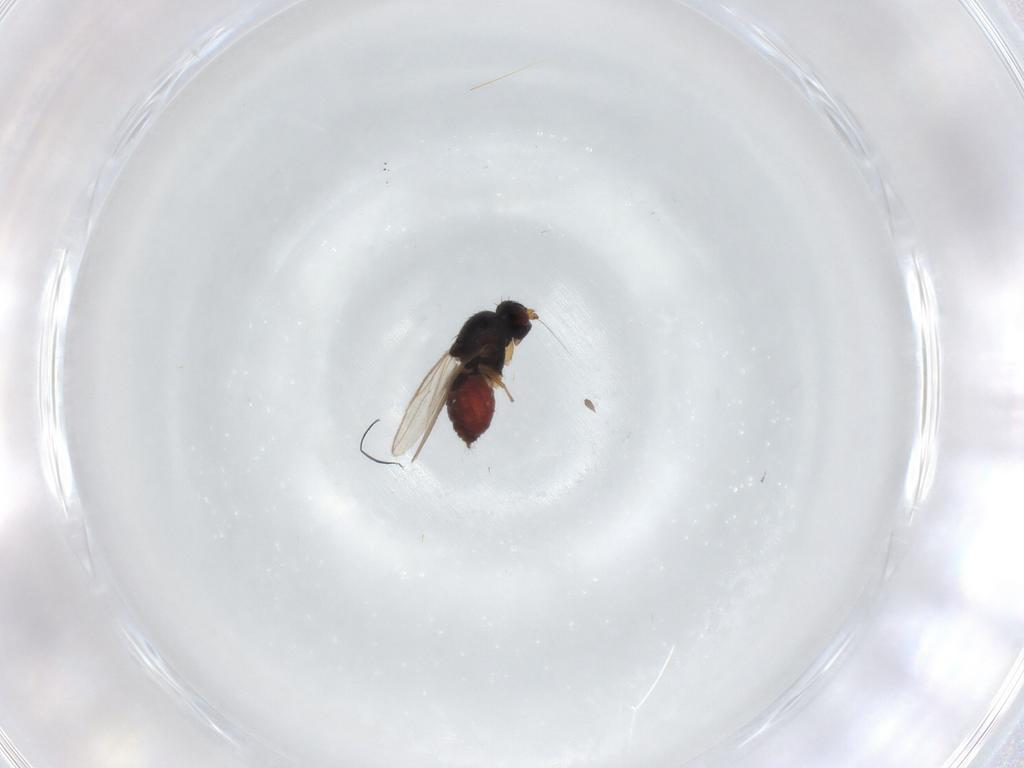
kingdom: Animalia
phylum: Arthropoda
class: Insecta
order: Diptera
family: Sphaeroceridae
